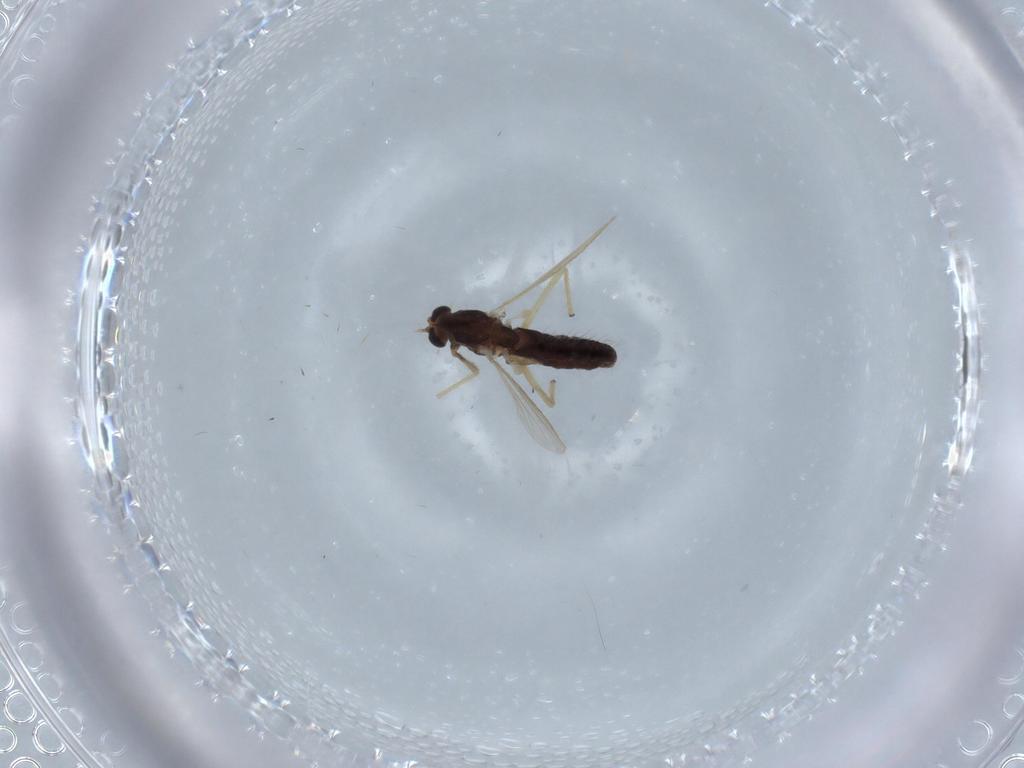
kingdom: Animalia
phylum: Arthropoda
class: Insecta
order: Diptera
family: Chironomidae
